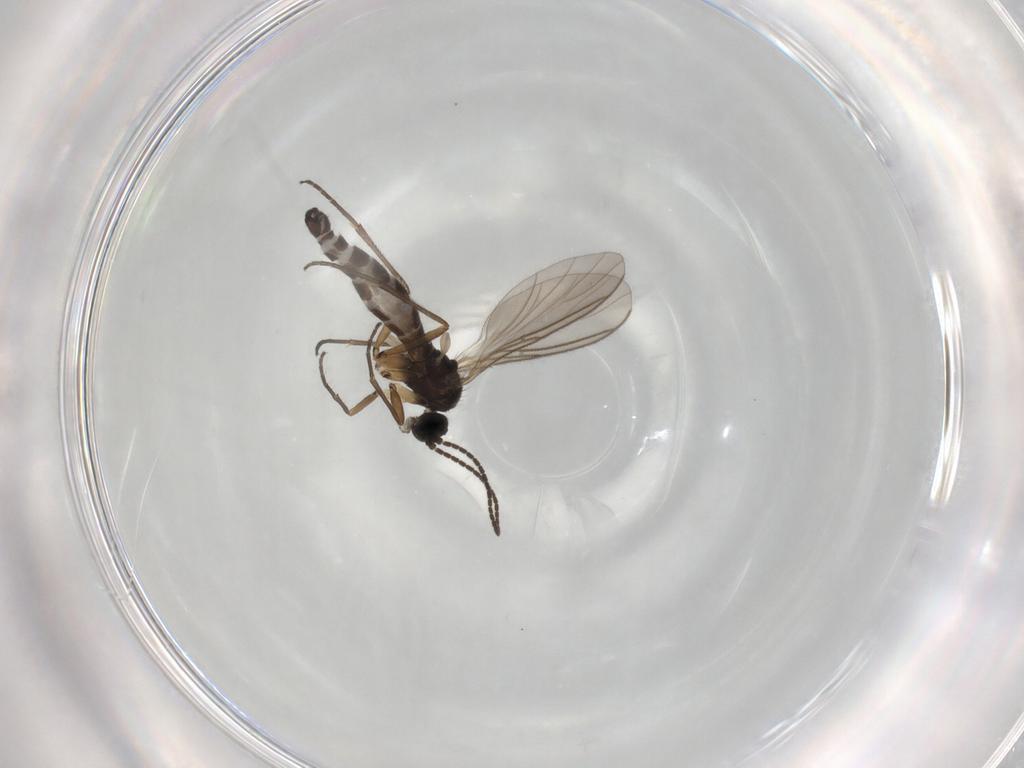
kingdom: Animalia
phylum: Arthropoda
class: Insecta
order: Diptera
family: Sciaridae
